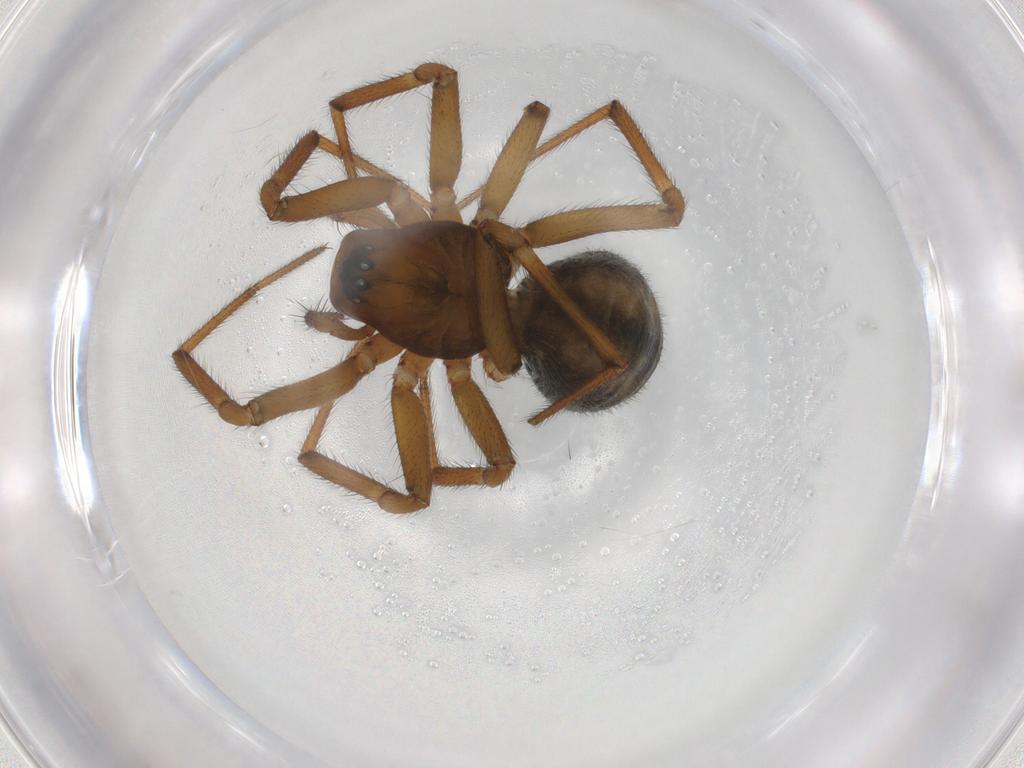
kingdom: Animalia
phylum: Arthropoda
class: Arachnida
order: Araneae
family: Linyphiidae
